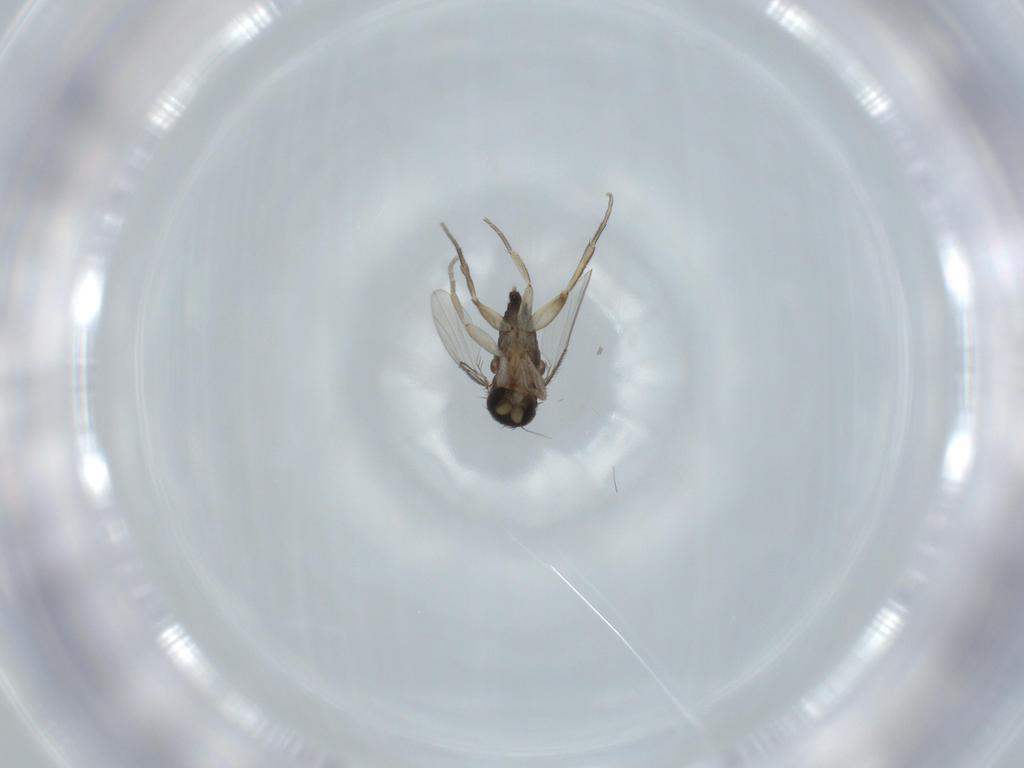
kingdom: Animalia
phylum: Arthropoda
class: Insecta
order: Diptera
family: Phoridae
